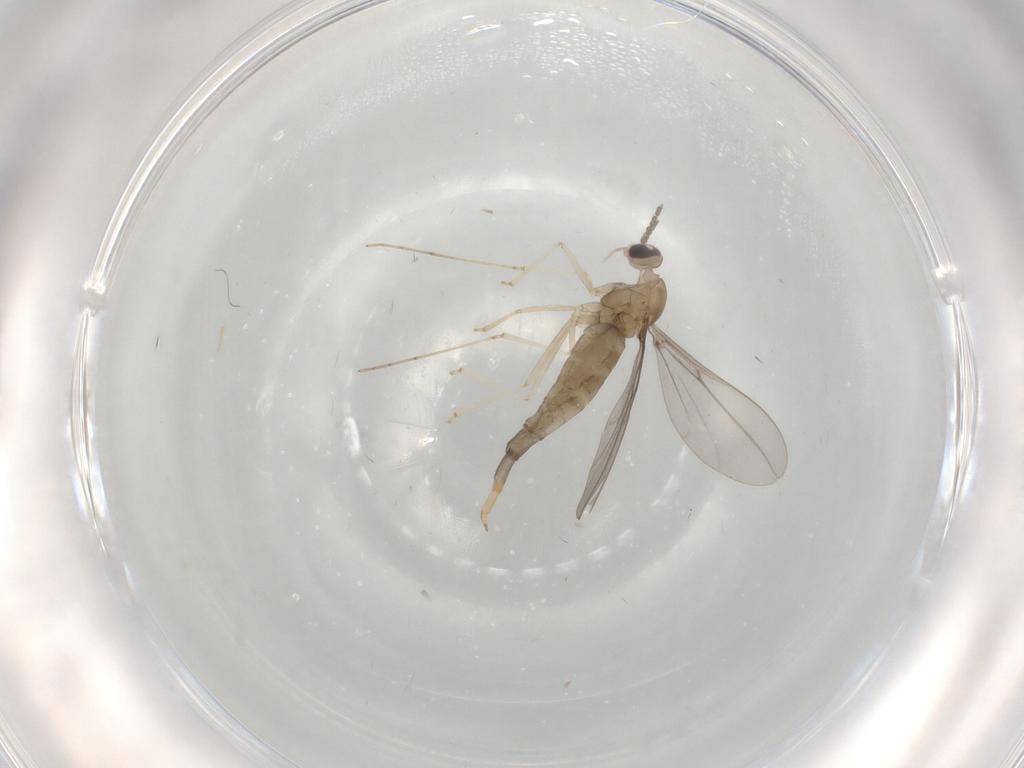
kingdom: Animalia
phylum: Arthropoda
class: Insecta
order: Diptera
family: Cecidomyiidae
